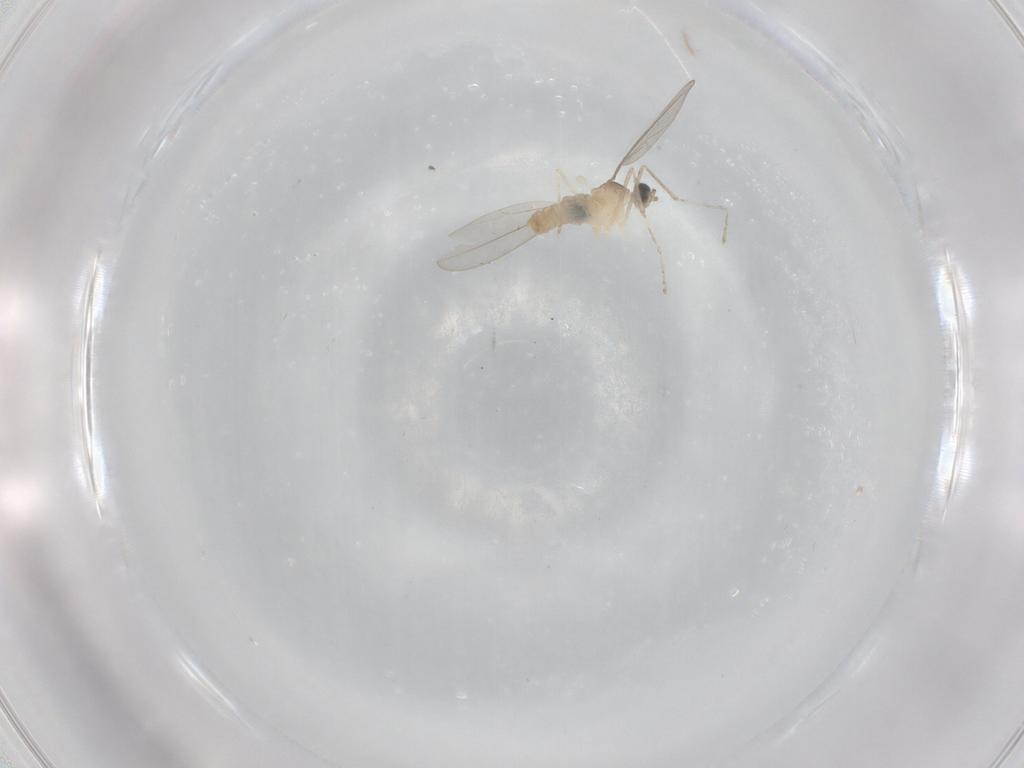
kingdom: Animalia
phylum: Arthropoda
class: Insecta
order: Diptera
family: Cecidomyiidae
